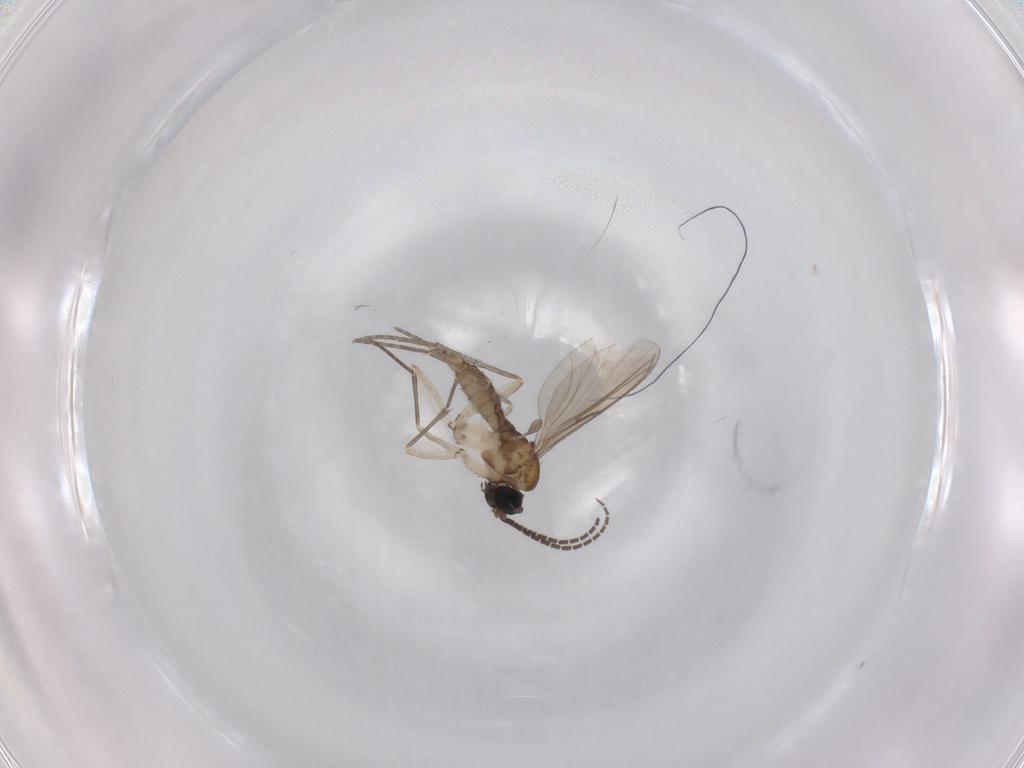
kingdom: Animalia
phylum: Arthropoda
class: Insecta
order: Diptera
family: Sciaridae
